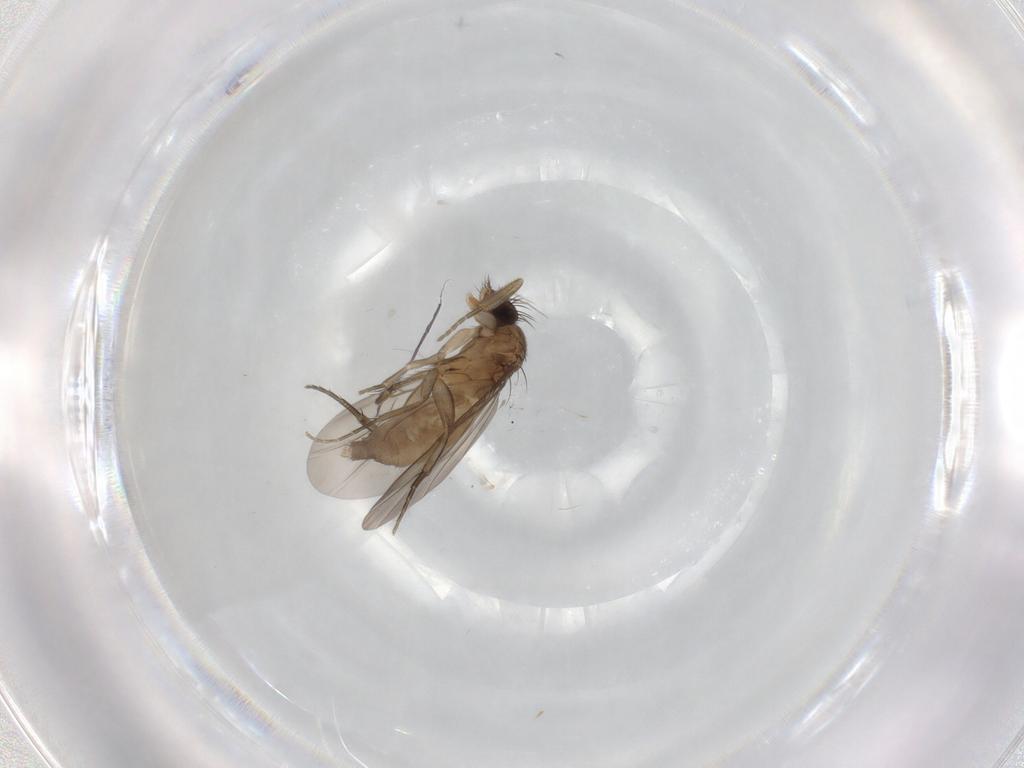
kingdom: Animalia
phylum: Arthropoda
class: Insecta
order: Diptera
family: Phoridae
